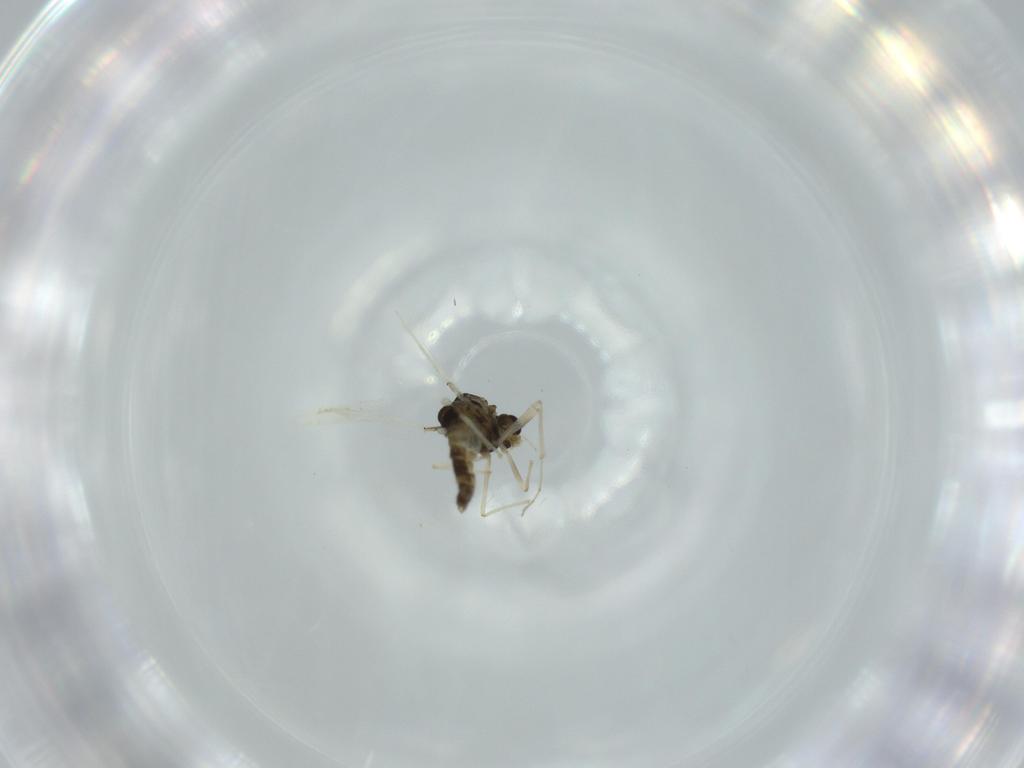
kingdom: Animalia
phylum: Arthropoda
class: Insecta
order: Diptera
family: Chironomidae
